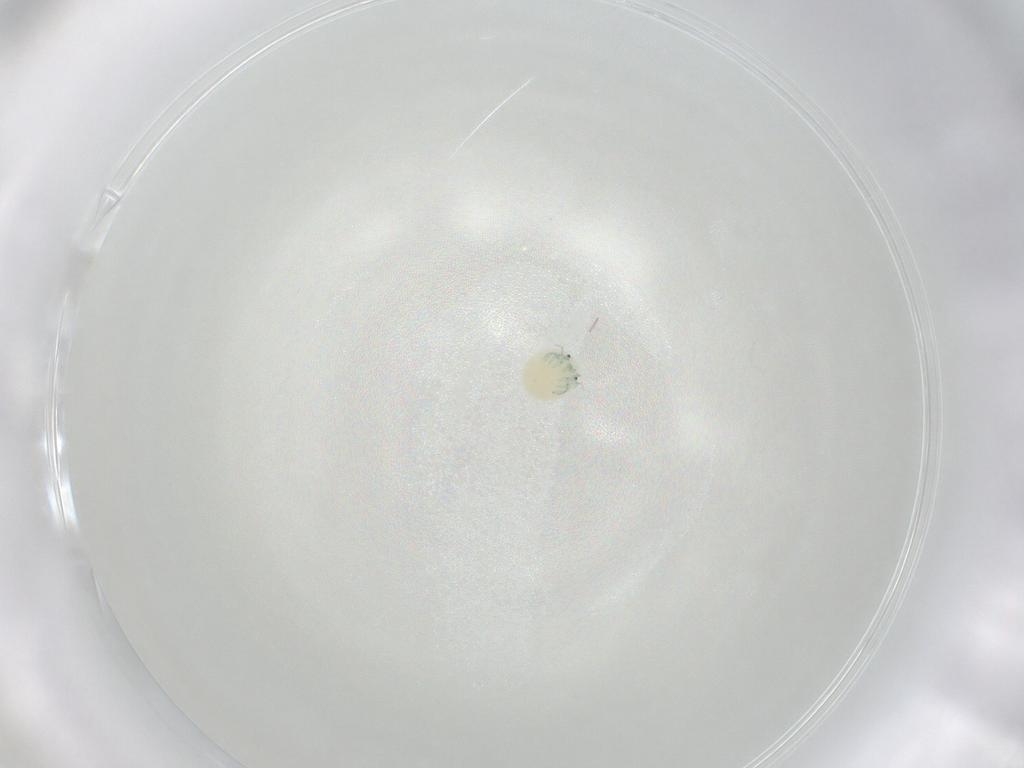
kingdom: Animalia
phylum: Arthropoda
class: Arachnida
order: Trombidiformes
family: Arrenuridae
